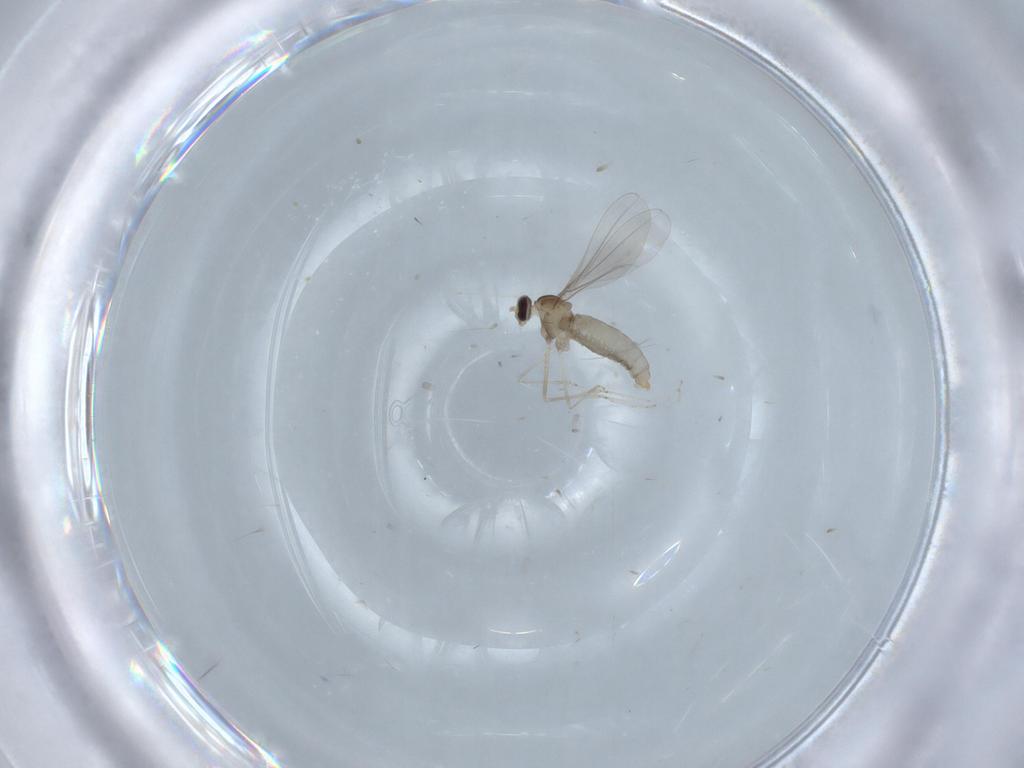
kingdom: Animalia
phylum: Arthropoda
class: Insecta
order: Diptera
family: Cecidomyiidae
